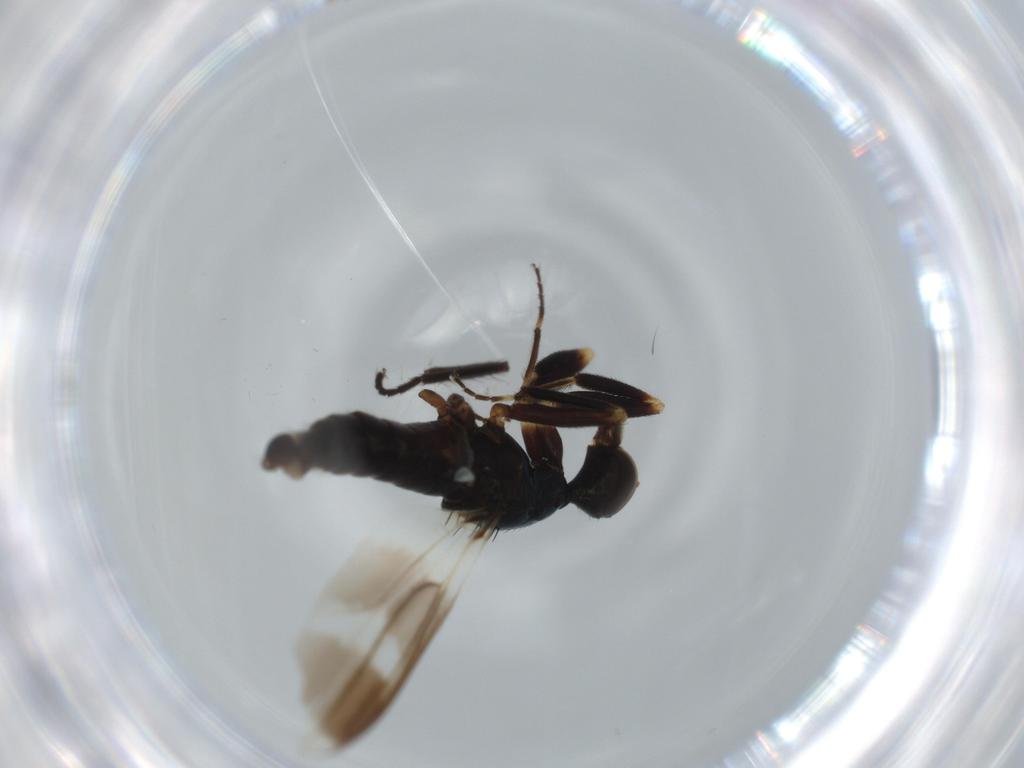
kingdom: Animalia
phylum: Arthropoda
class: Insecta
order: Diptera
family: Hybotidae
